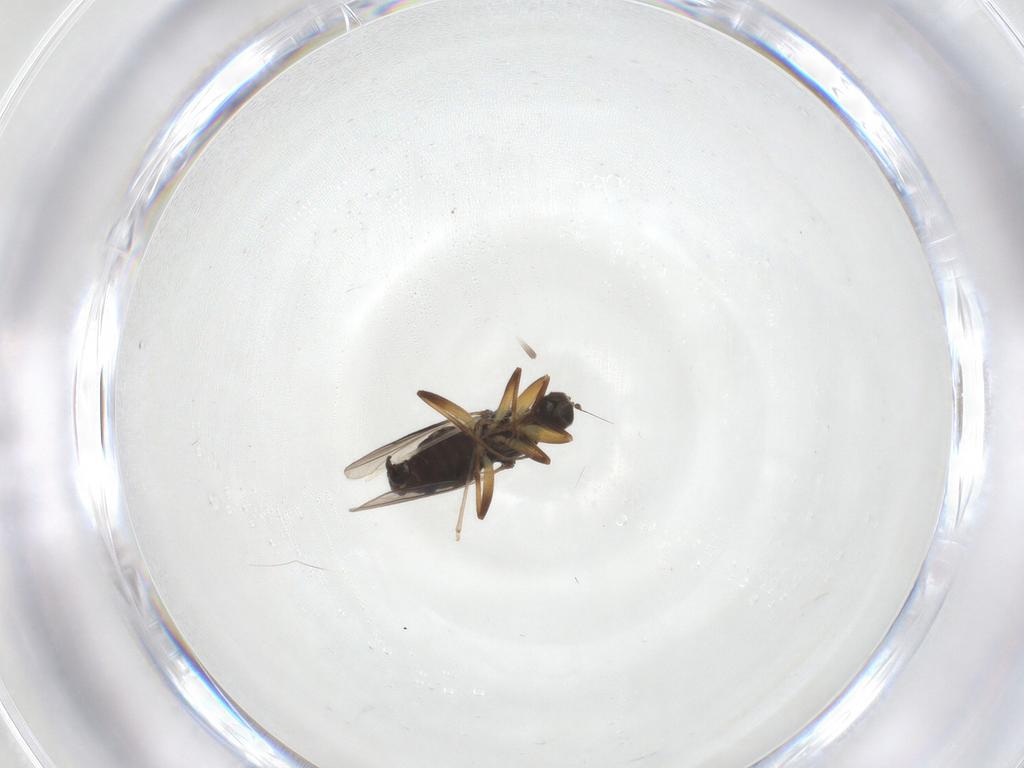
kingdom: Animalia
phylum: Arthropoda
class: Insecta
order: Diptera
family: Hybotidae
